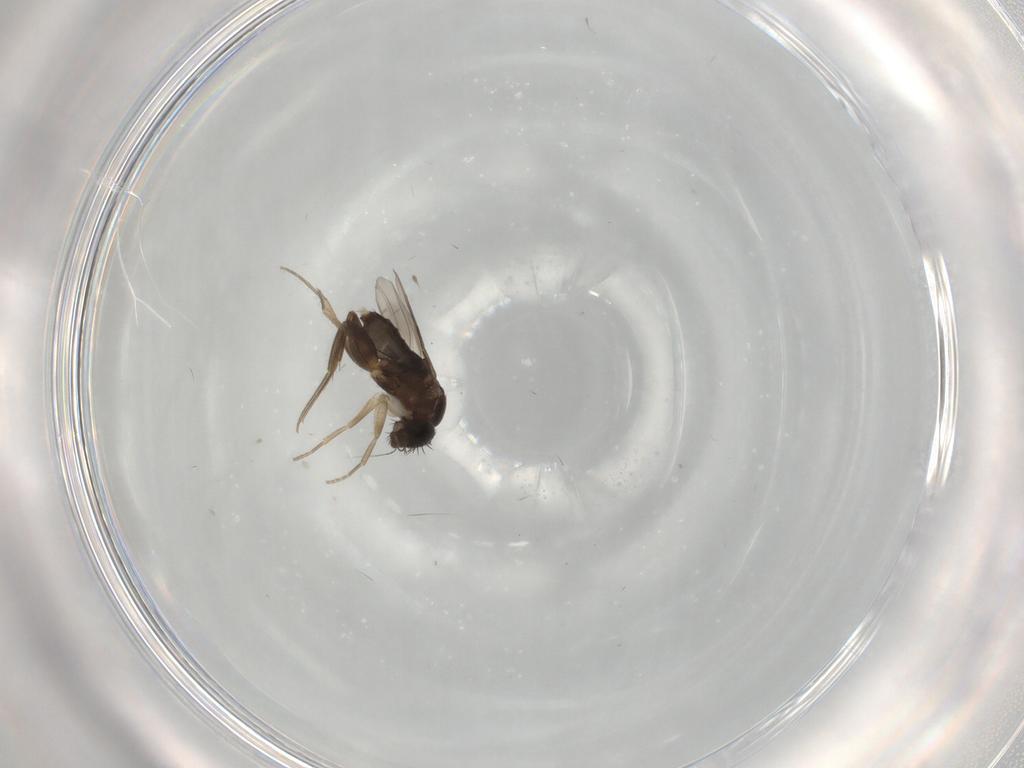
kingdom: Animalia
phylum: Arthropoda
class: Insecta
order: Diptera
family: Phoridae
